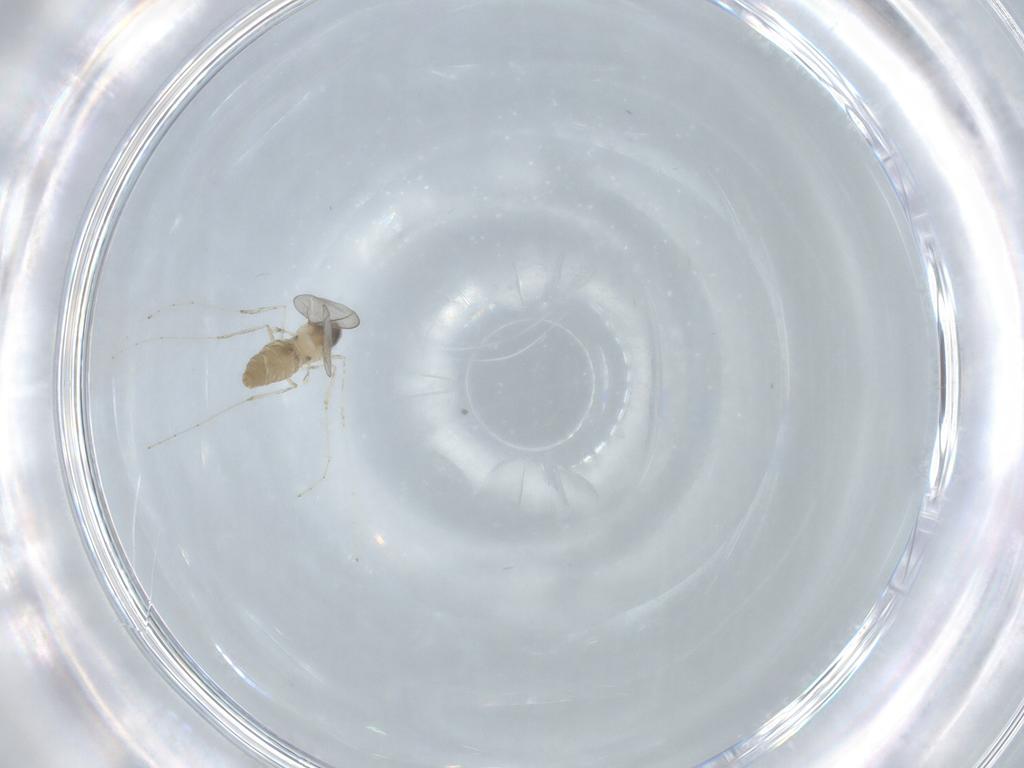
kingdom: Animalia
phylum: Arthropoda
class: Insecta
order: Diptera
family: Cecidomyiidae
